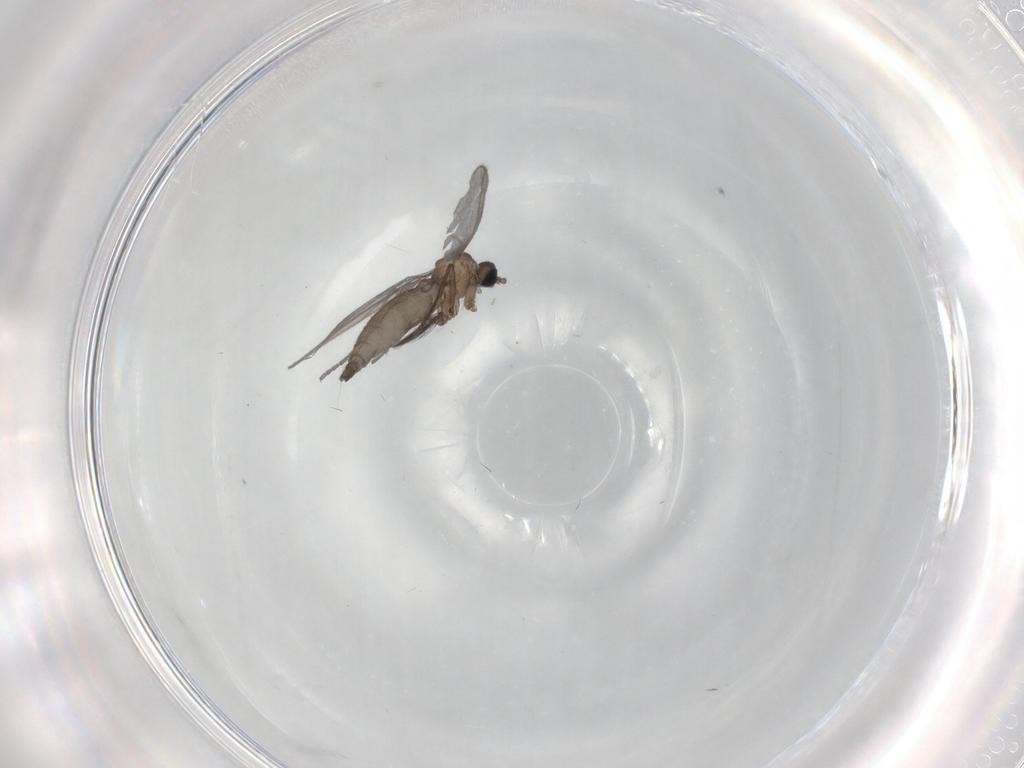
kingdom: Animalia
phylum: Arthropoda
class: Insecta
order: Diptera
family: Sciaridae
